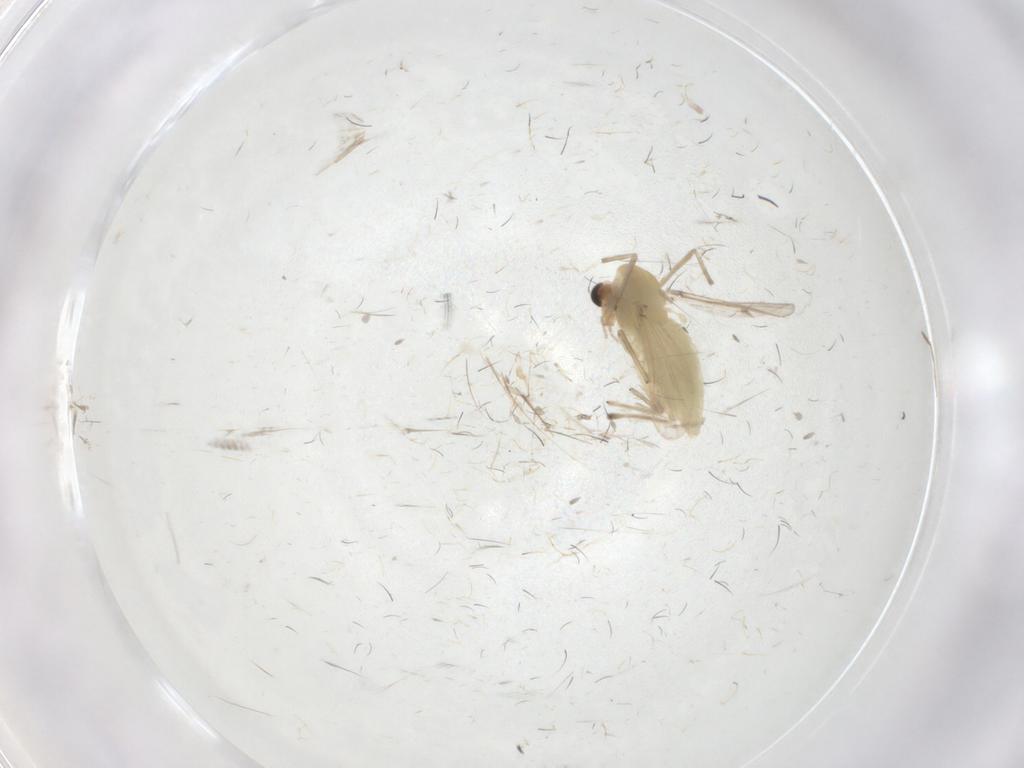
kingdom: Animalia
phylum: Arthropoda
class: Insecta
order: Diptera
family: Chironomidae
